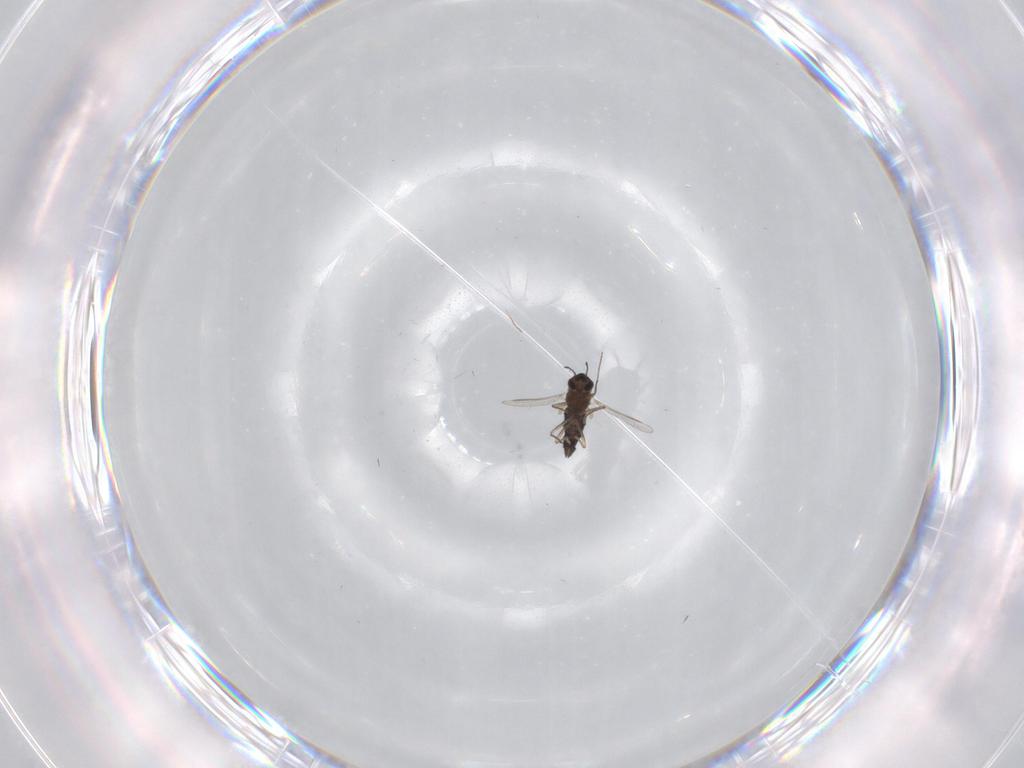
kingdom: Animalia
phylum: Arthropoda
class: Insecta
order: Diptera
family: Chironomidae
